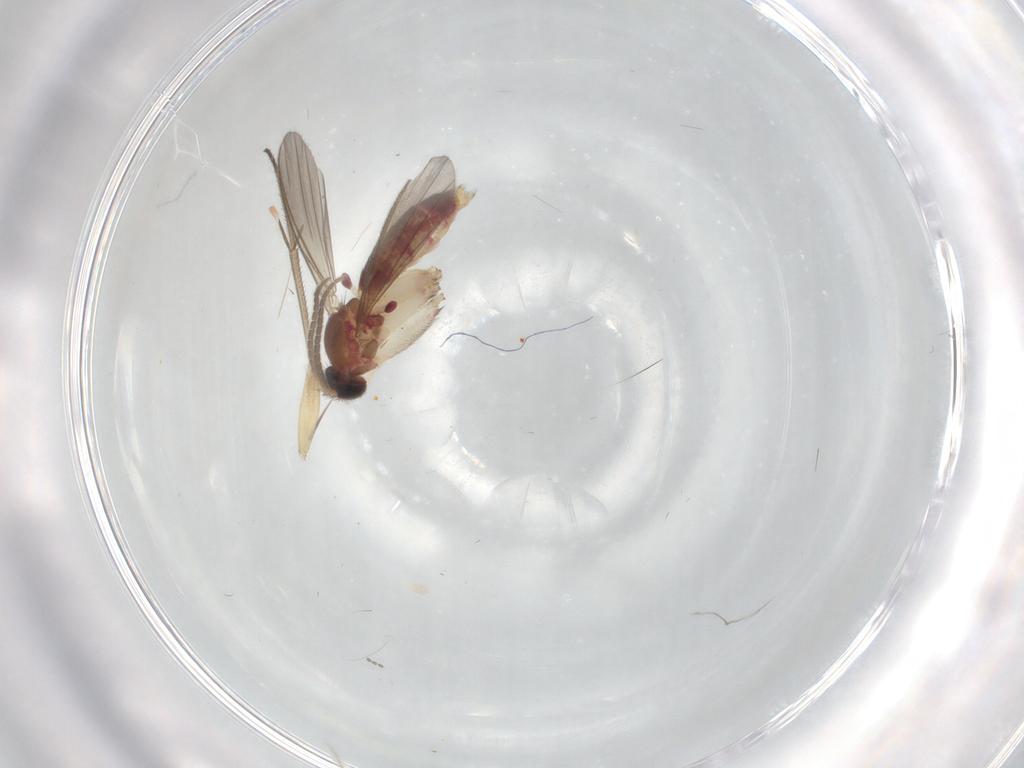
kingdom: Animalia
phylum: Arthropoda
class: Insecta
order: Diptera
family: Mycetophilidae
